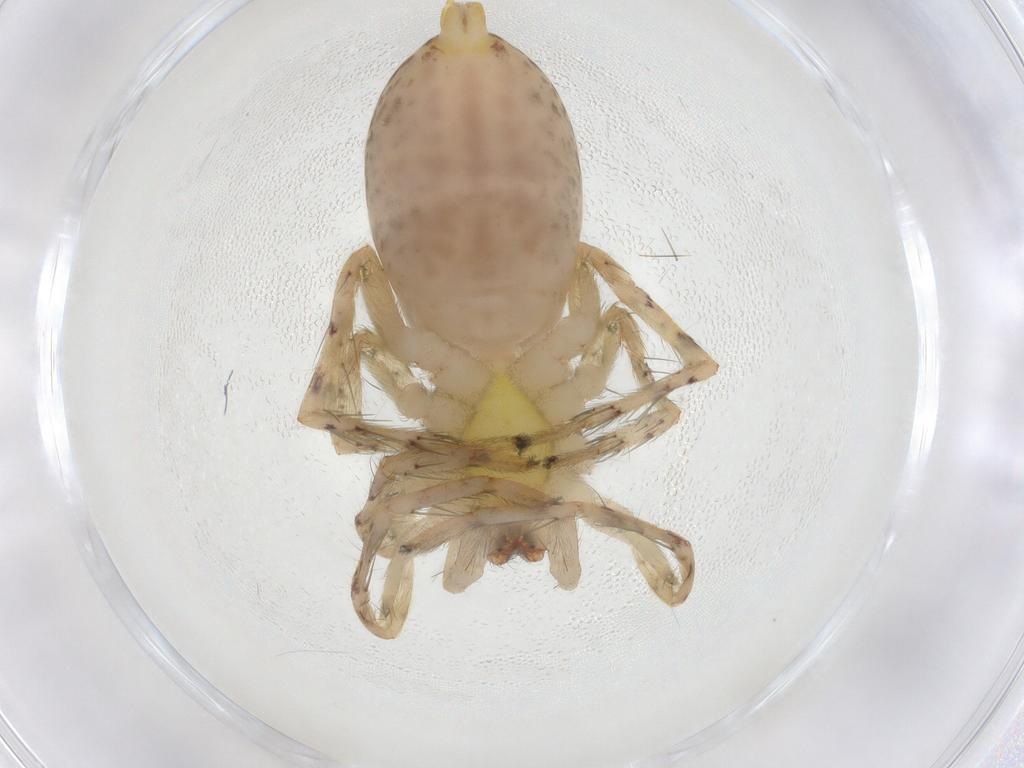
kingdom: Animalia
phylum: Arthropoda
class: Arachnida
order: Araneae
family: Anyphaenidae
